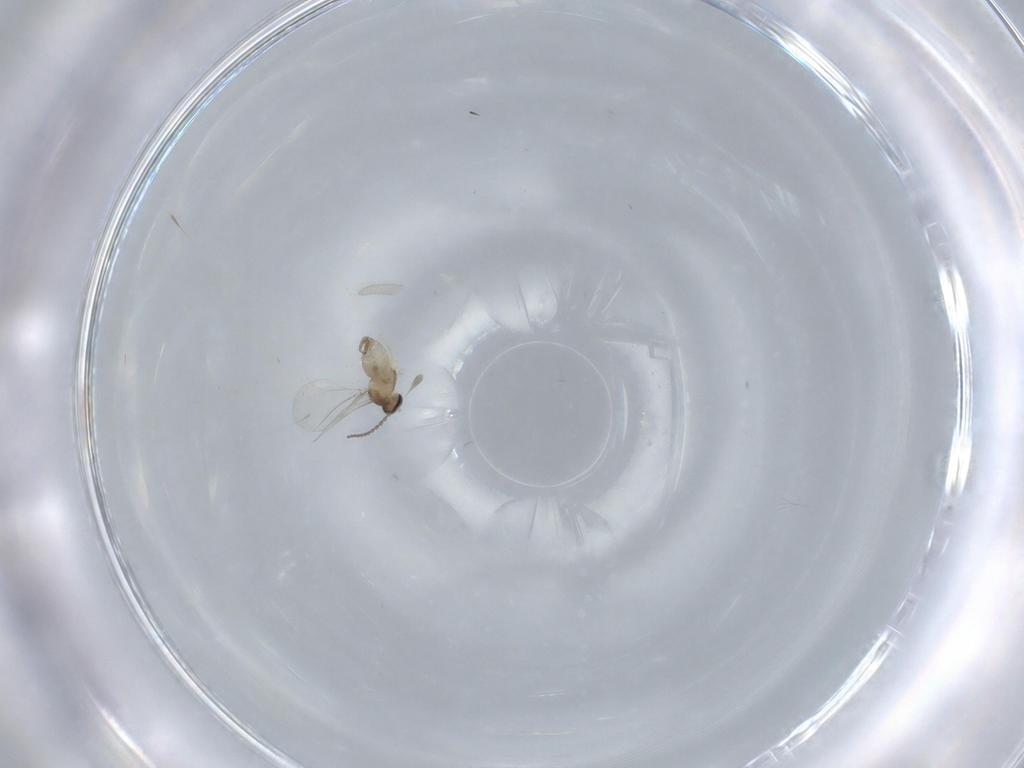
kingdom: Animalia
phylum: Arthropoda
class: Insecta
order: Diptera
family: Cecidomyiidae
